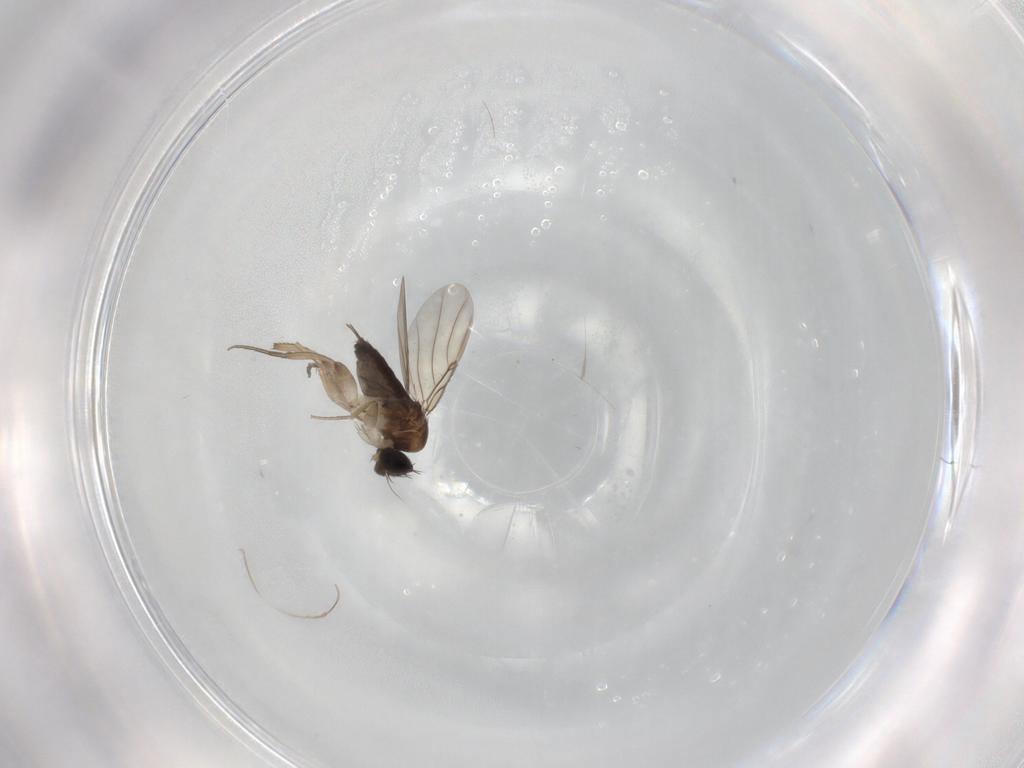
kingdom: Animalia
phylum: Arthropoda
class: Insecta
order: Diptera
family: Phoridae
